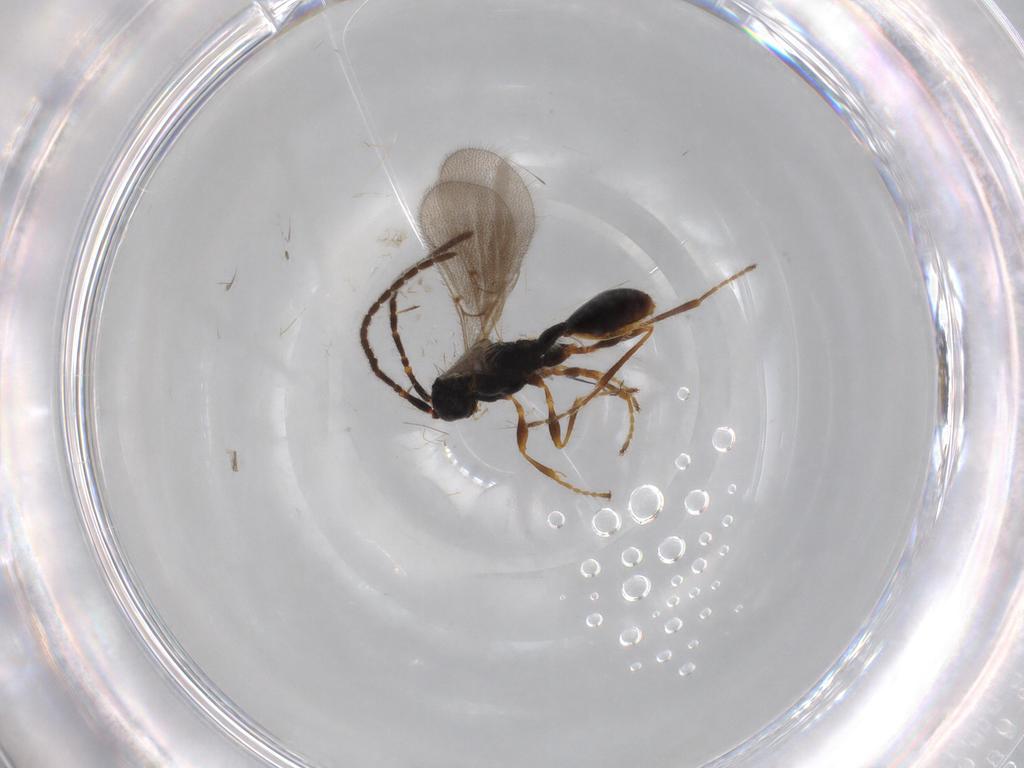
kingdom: Animalia
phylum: Arthropoda
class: Insecta
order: Hymenoptera
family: Diapriidae
